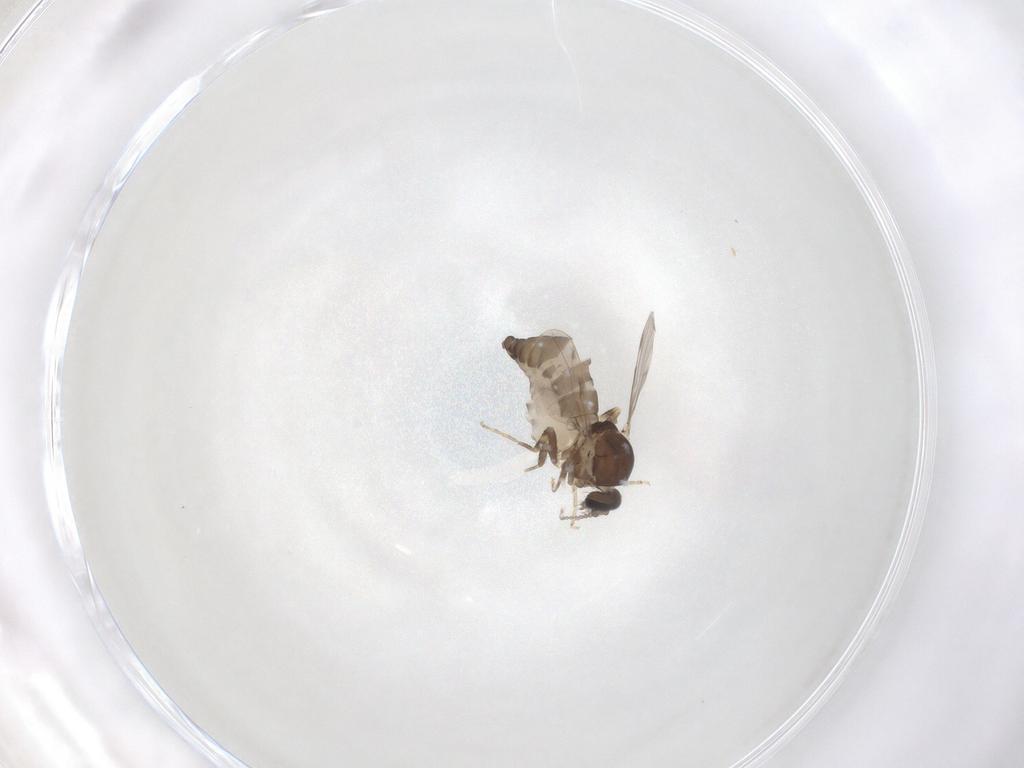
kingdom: Animalia
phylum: Arthropoda
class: Insecta
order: Diptera
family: Ceratopogonidae
